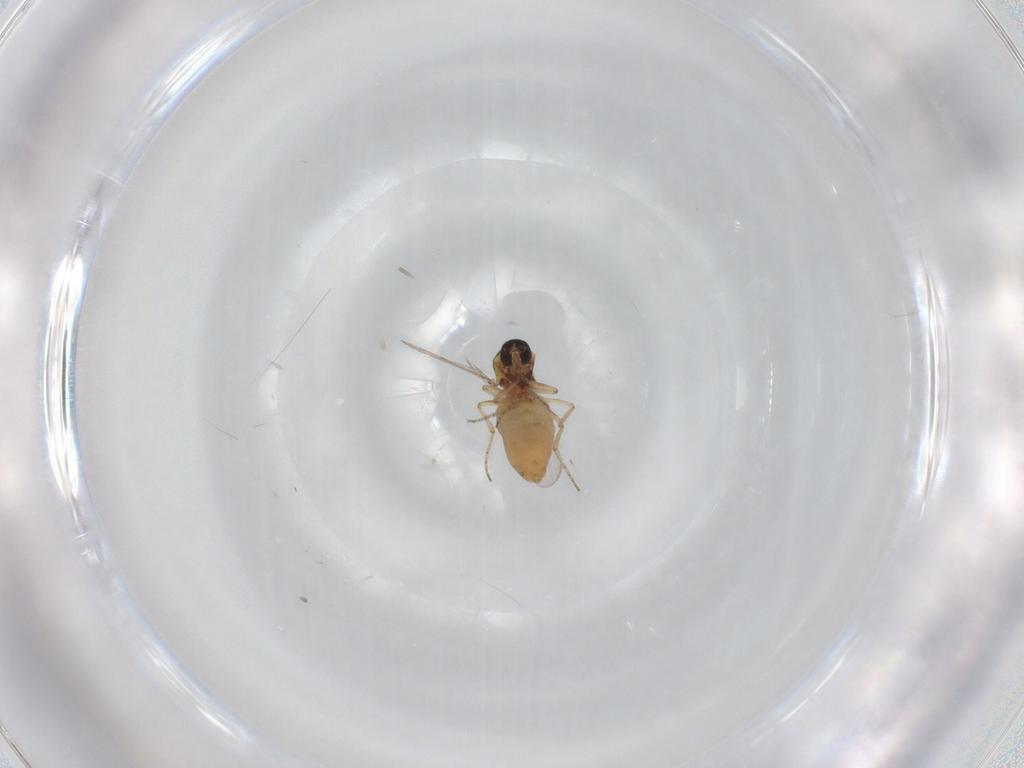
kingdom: Animalia
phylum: Arthropoda
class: Insecta
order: Diptera
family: Ceratopogonidae
